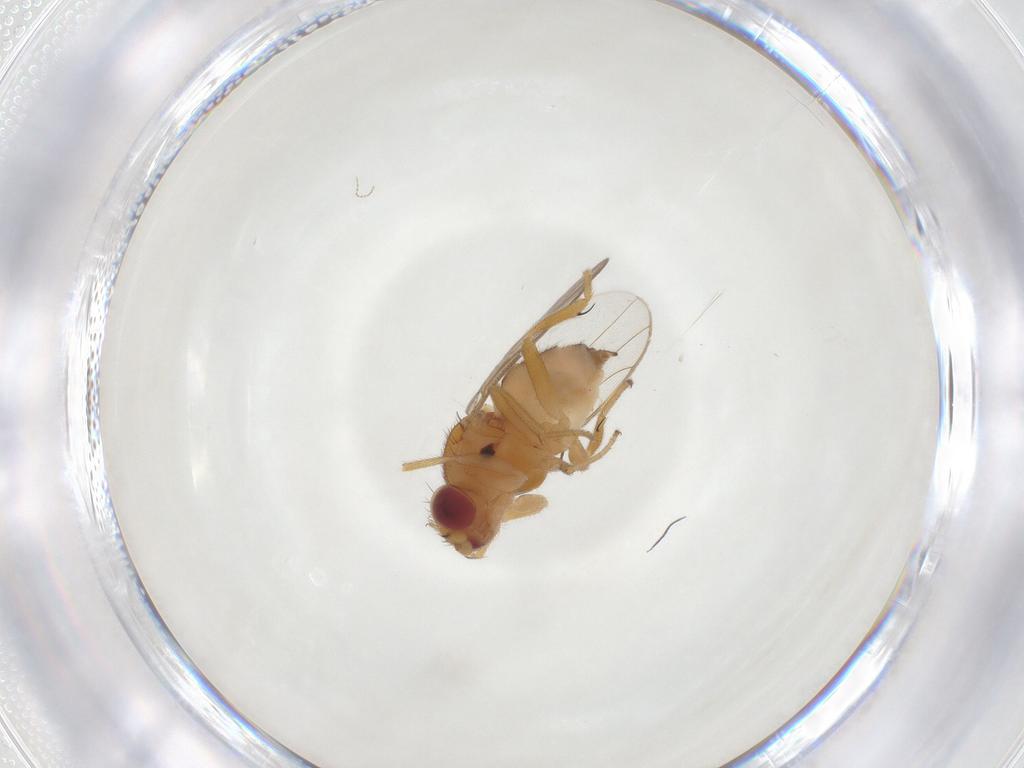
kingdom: Animalia
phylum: Arthropoda
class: Insecta
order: Diptera
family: Chloropidae
